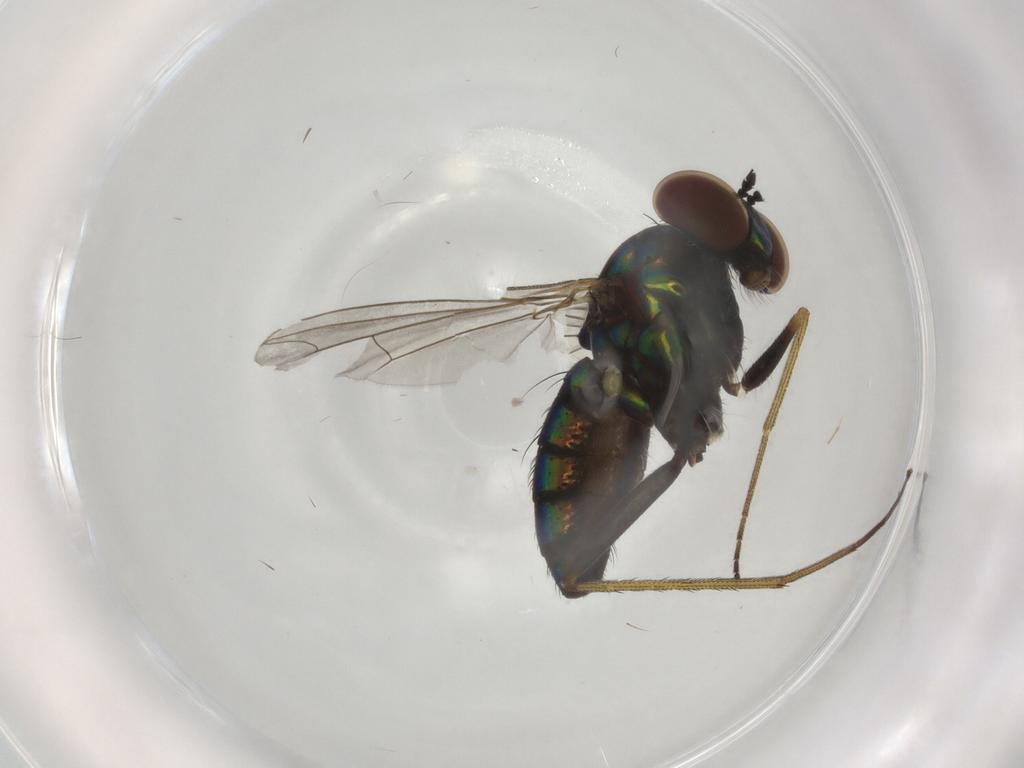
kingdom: Animalia
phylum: Arthropoda
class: Insecta
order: Diptera
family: Dolichopodidae
